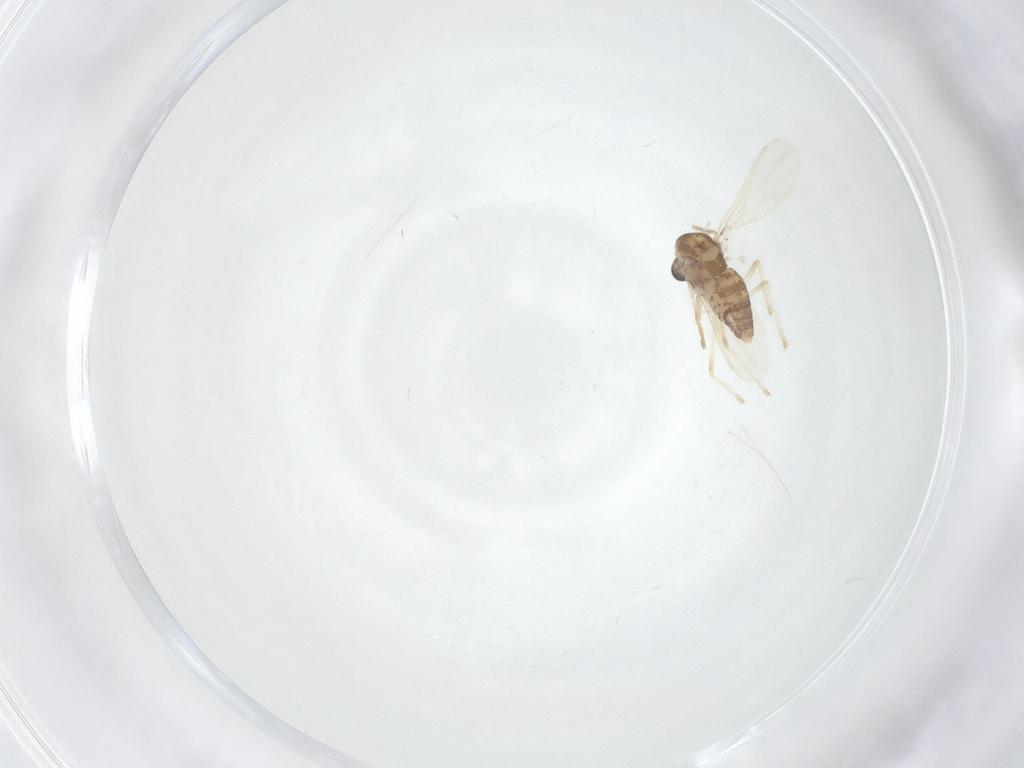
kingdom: Animalia
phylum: Arthropoda
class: Insecta
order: Diptera
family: Chironomidae
